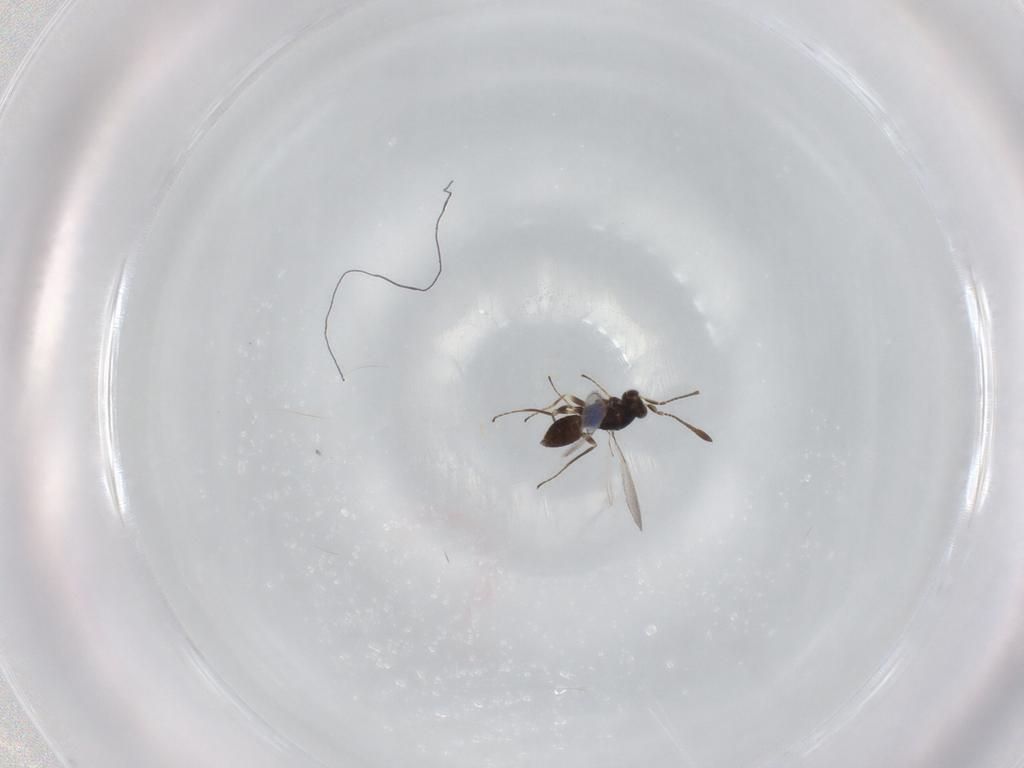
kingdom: Animalia
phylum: Arthropoda
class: Insecta
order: Hymenoptera
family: Mymaridae
